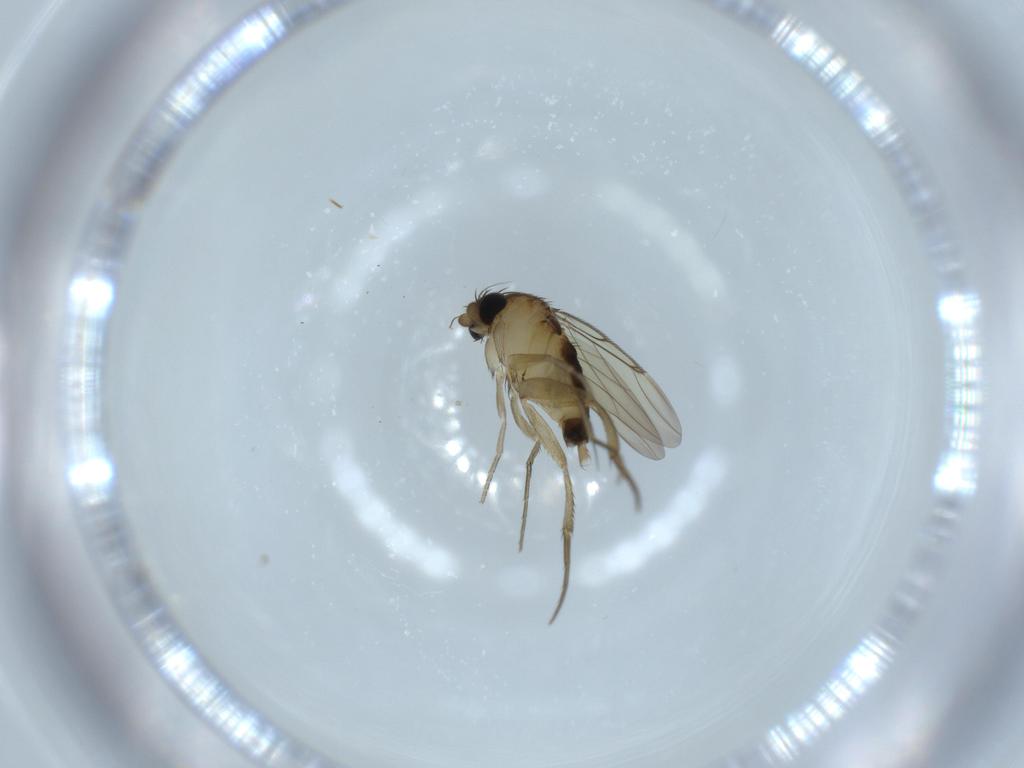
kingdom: Animalia
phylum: Arthropoda
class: Insecta
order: Diptera
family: Phoridae
